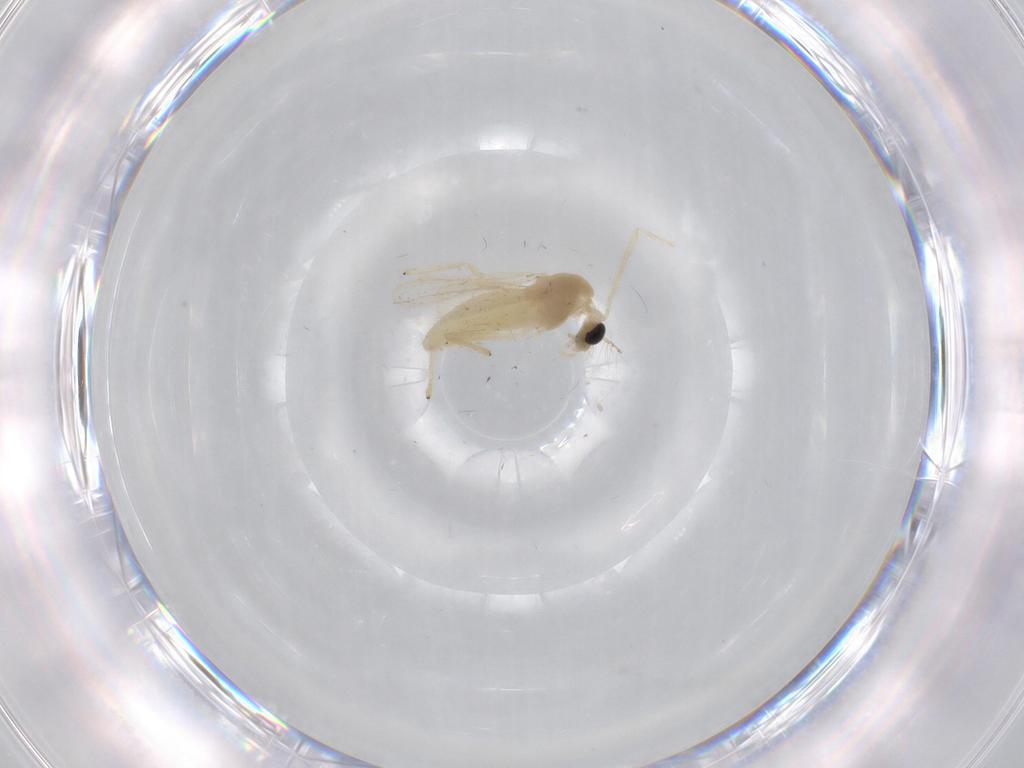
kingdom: Animalia
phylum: Arthropoda
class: Insecta
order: Diptera
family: Chironomidae
